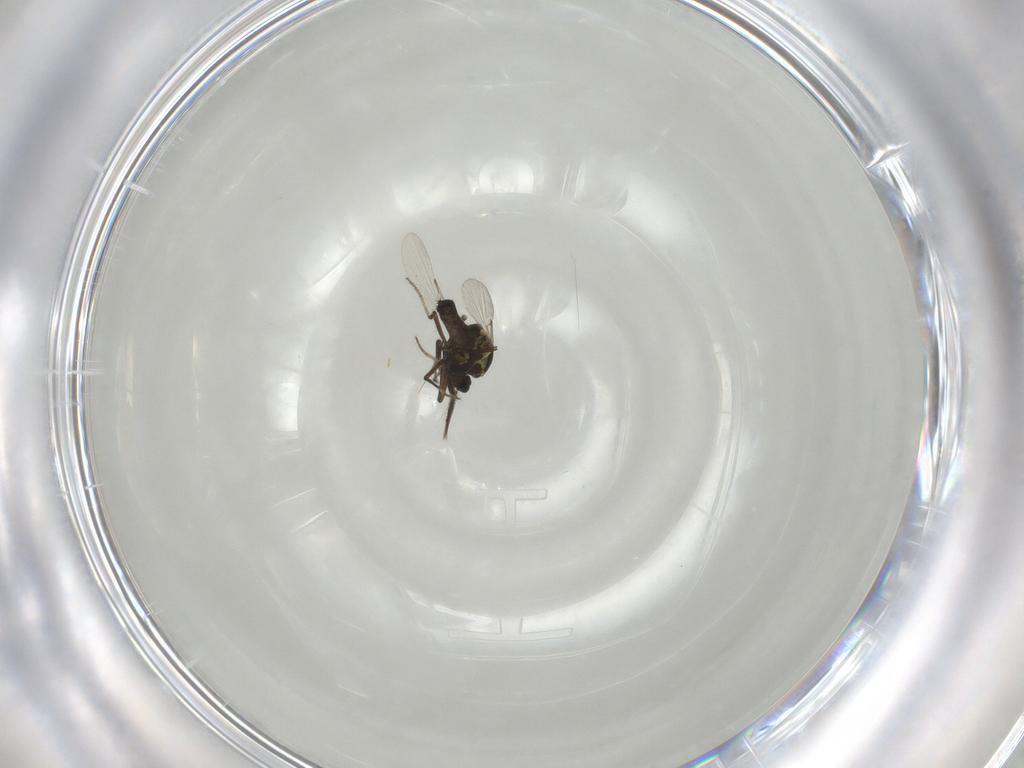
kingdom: Animalia
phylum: Arthropoda
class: Insecta
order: Diptera
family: Ceratopogonidae
